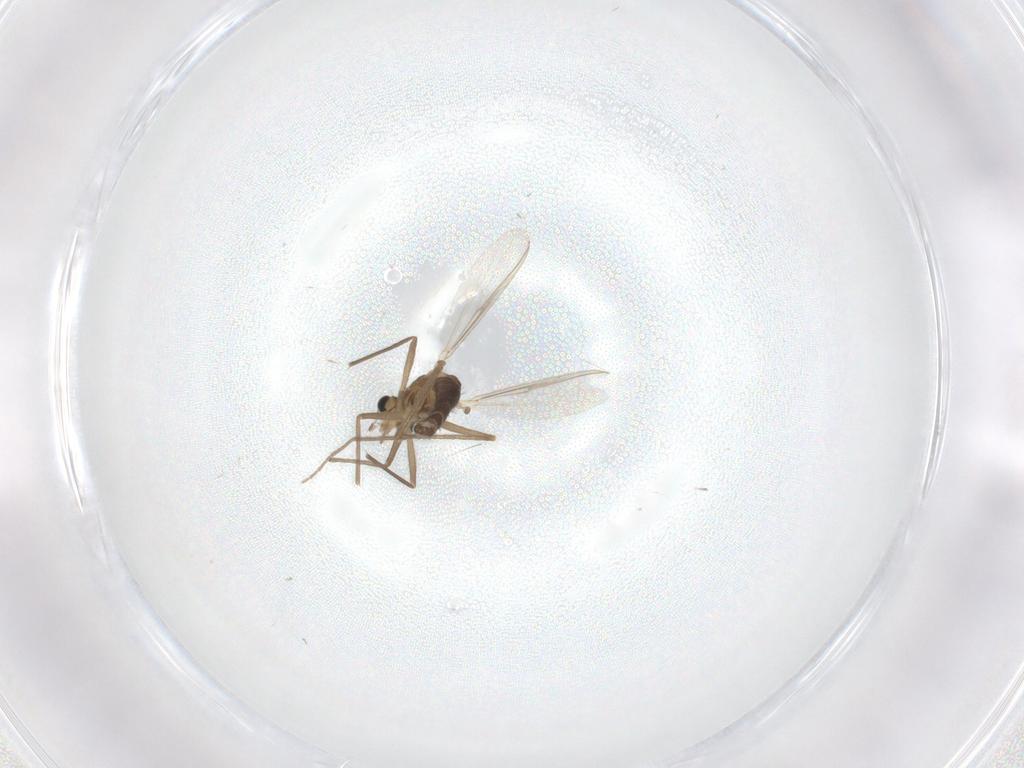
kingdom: Animalia
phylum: Arthropoda
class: Insecta
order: Diptera
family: Chironomidae
